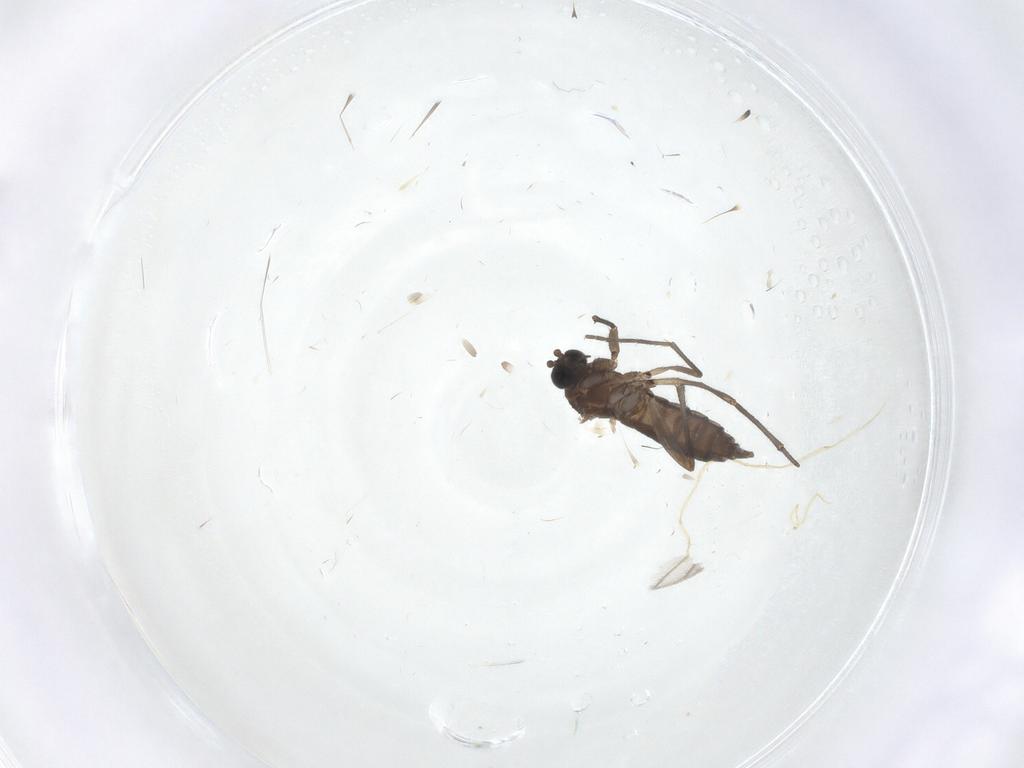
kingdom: Animalia
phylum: Arthropoda
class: Insecta
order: Diptera
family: Sciaridae
